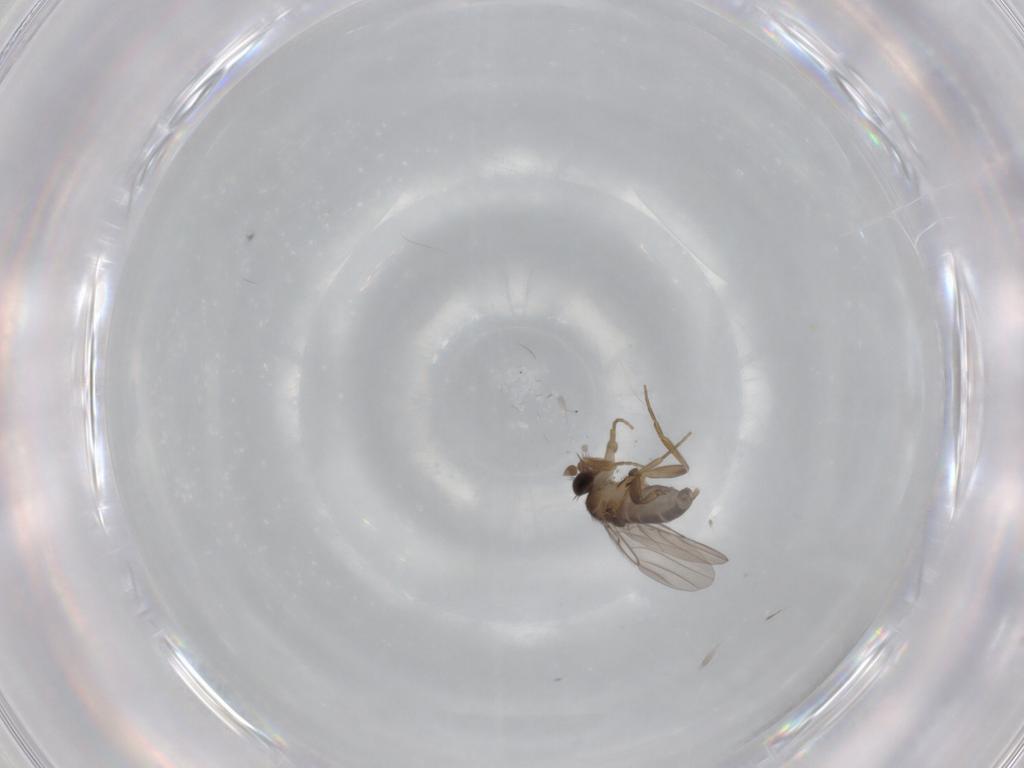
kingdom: Animalia
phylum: Arthropoda
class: Insecta
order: Diptera
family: Phoridae
